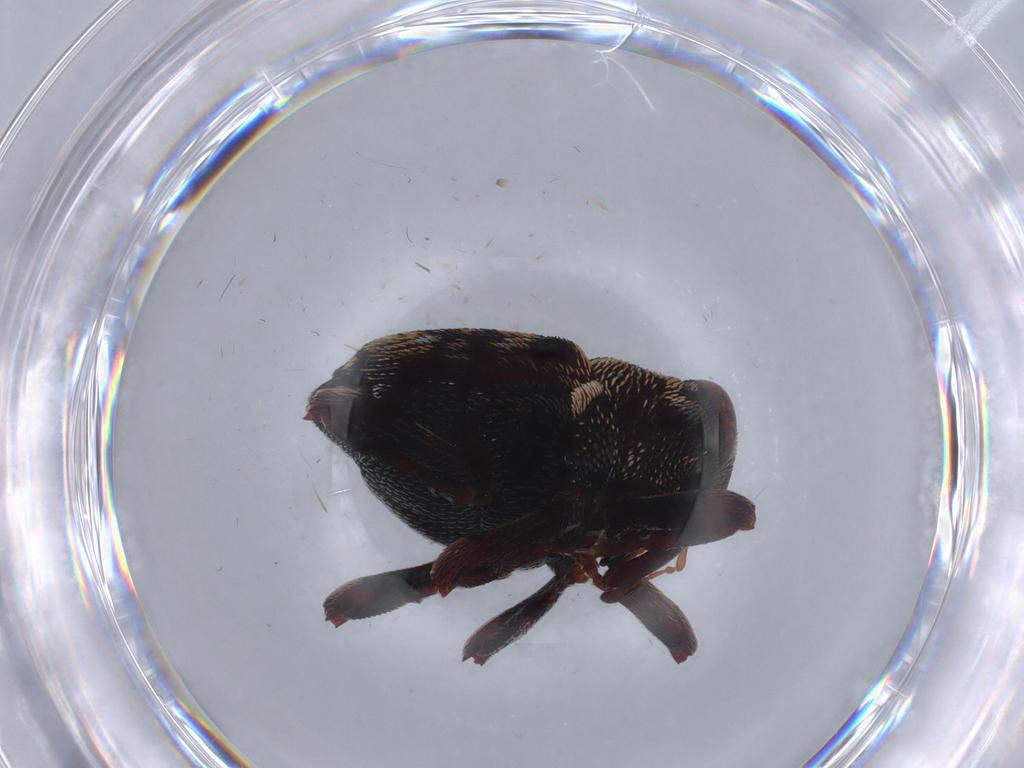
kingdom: Animalia
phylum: Arthropoda
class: Insecta
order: Coleoptera
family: Curculionidae
